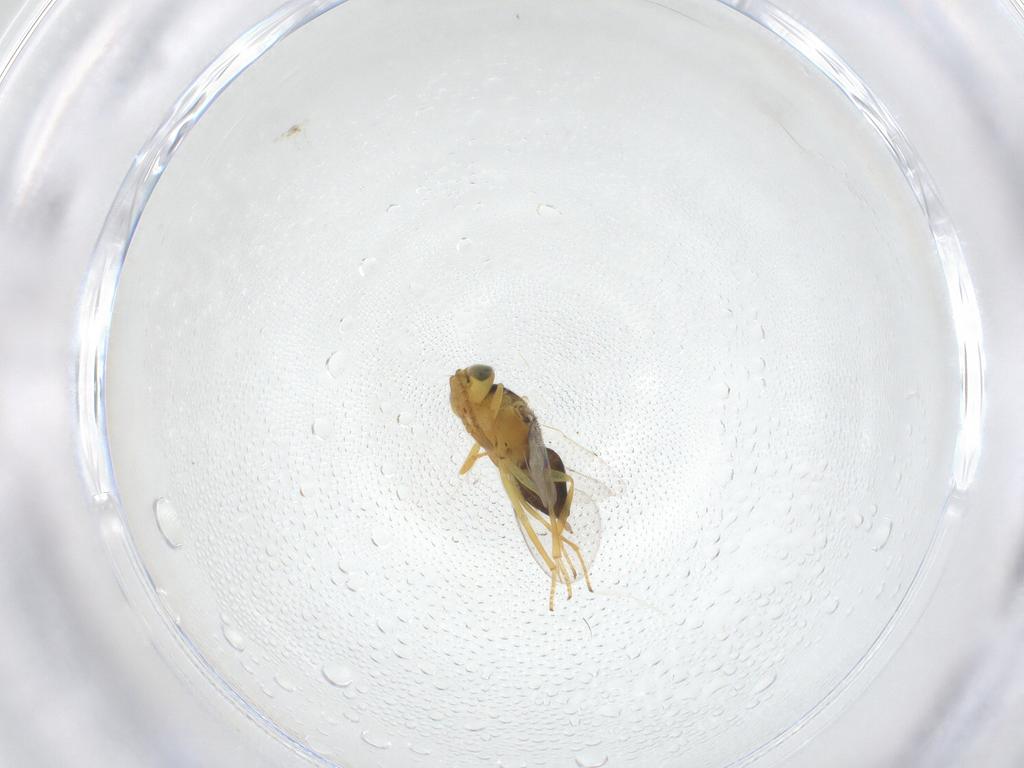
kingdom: Animalia
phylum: Arthropoda
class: Insecta
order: Hymenoptera
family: Encyrtidae
